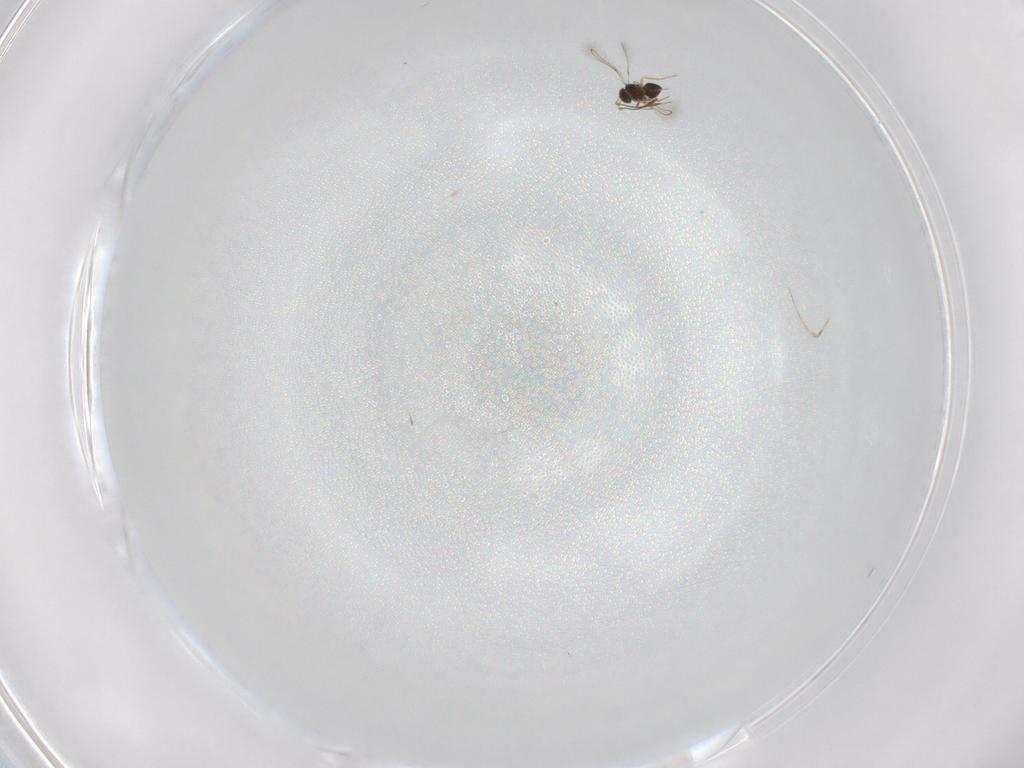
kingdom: Animalia
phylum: Arthropoda
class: Insecta
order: Hymenoptera
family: Mymaridae
